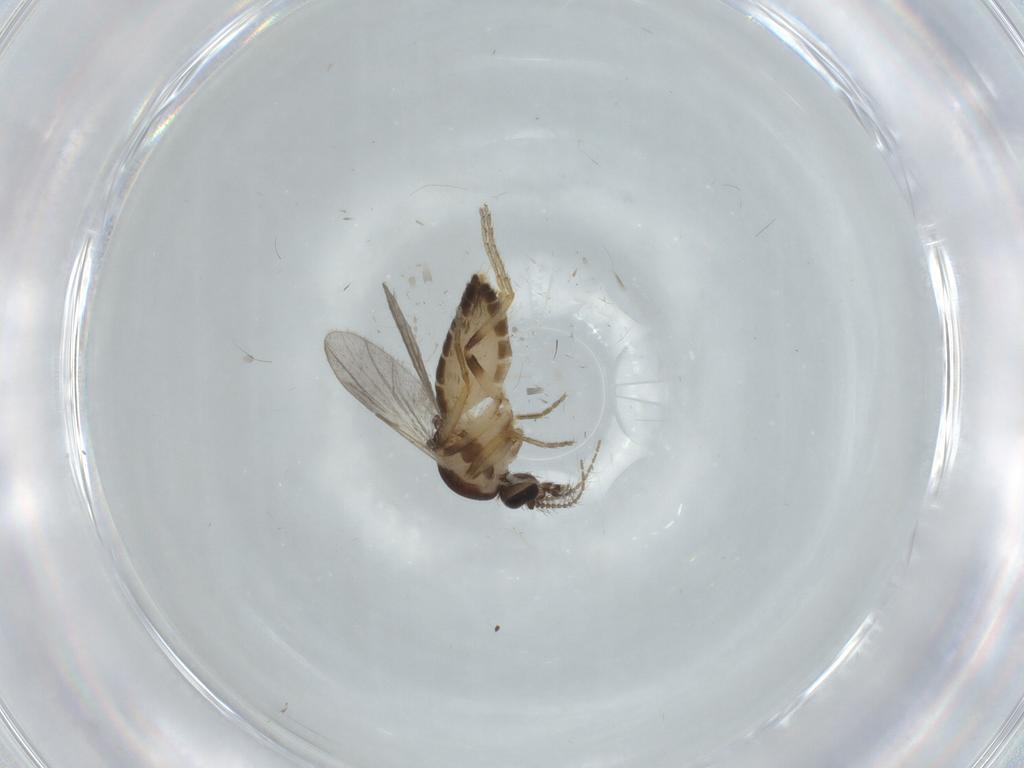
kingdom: Animalia
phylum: Arthropoda
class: Insecta
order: Diptera
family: Ceratopogonidae
